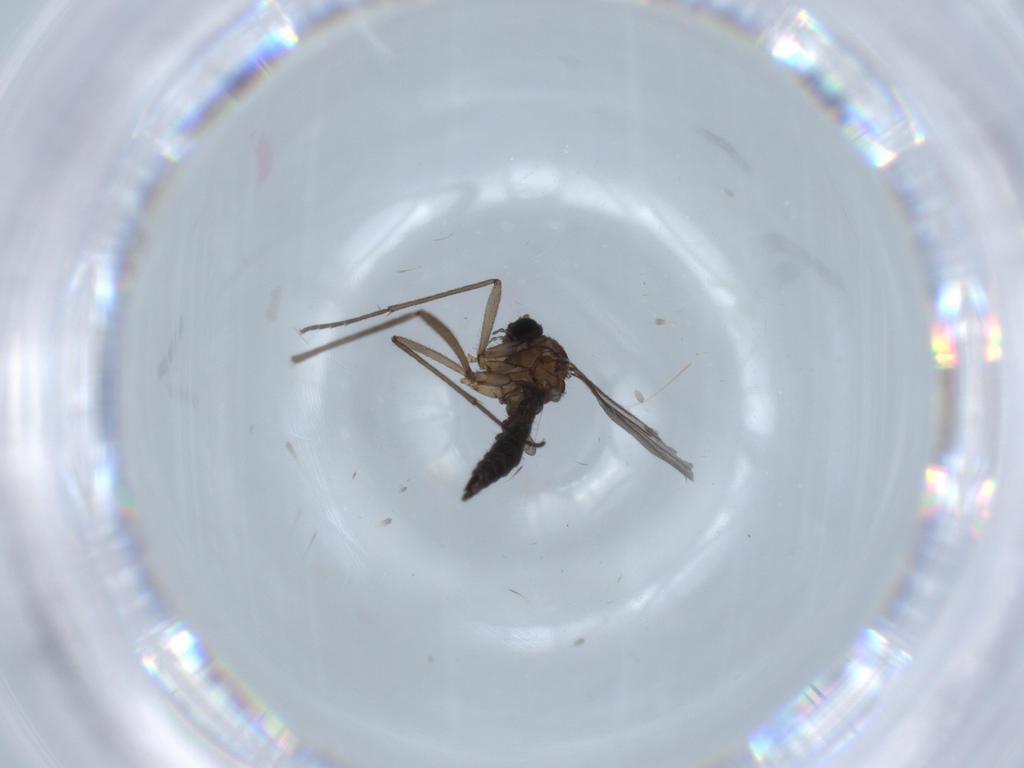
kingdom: Animalia
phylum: Arthropoda
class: Insecta
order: Diptera
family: Sciaridae
